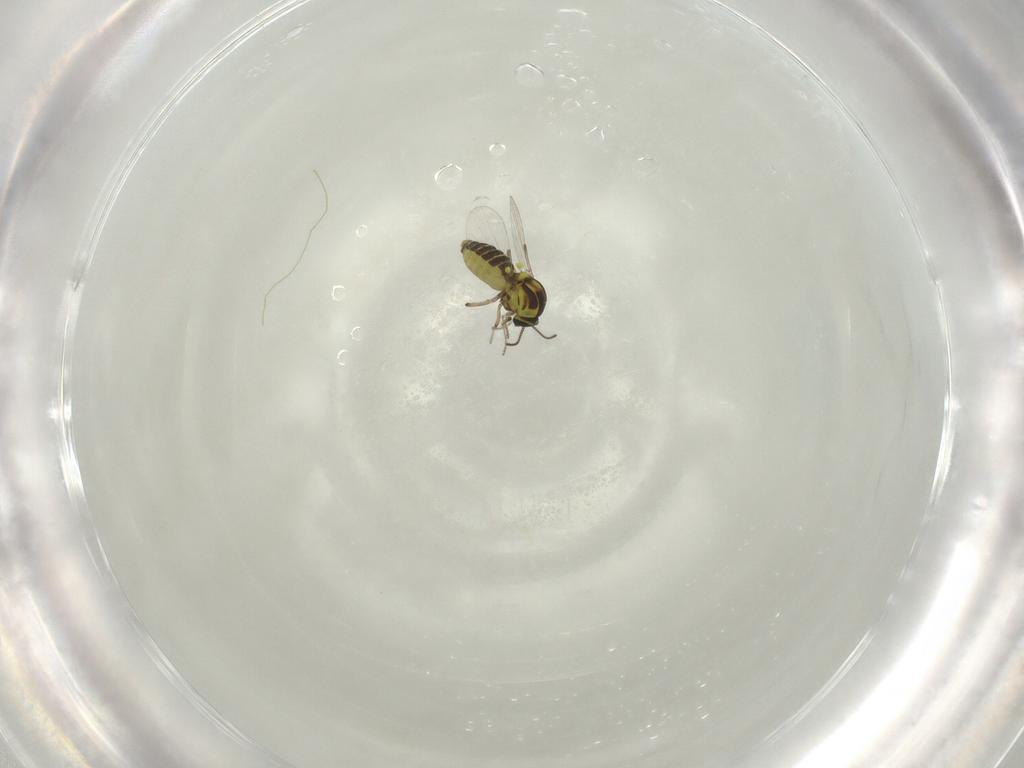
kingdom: Animalia
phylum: Arthropoda
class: Insecta
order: Diptera
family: Ceratopogonidae
